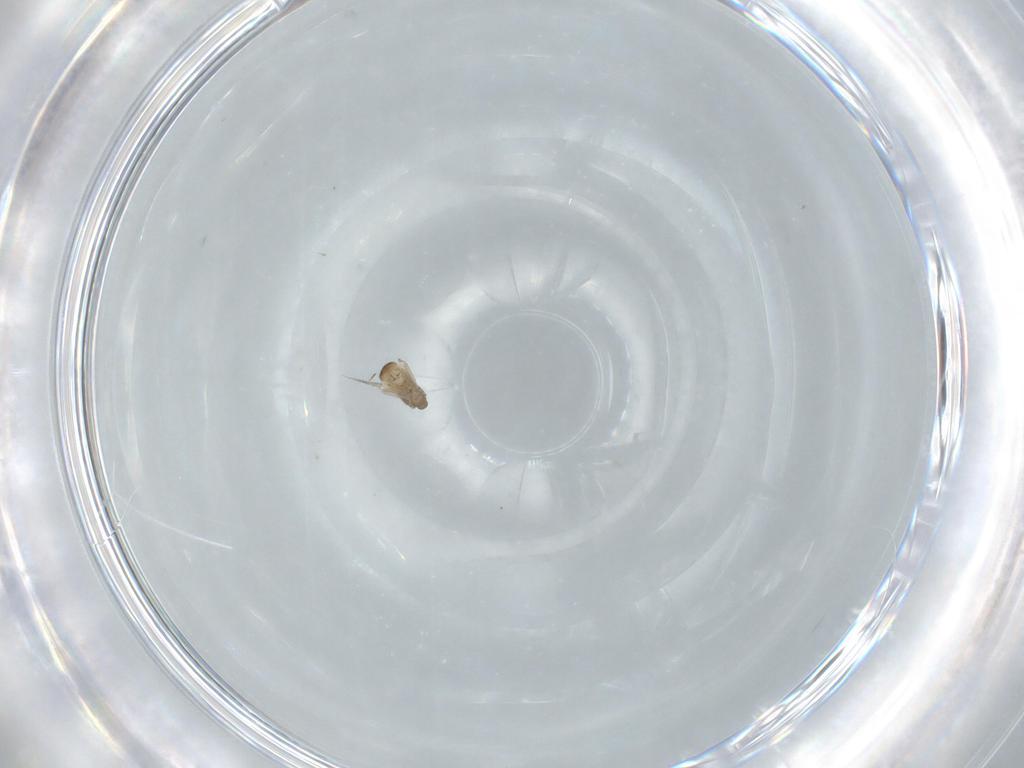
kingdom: Animalia
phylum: Arthropoda
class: Insecta
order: Diptera
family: Cecidomyiidae
